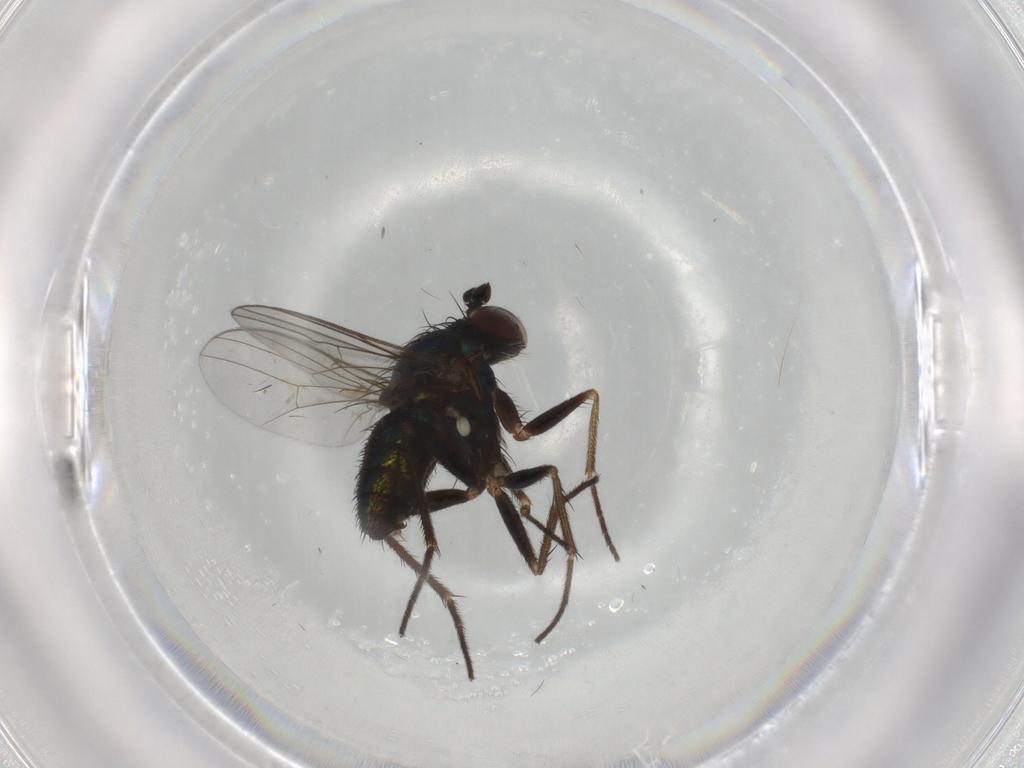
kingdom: Animalia
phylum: Arthropoda
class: Insecta
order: Diptera
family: Dolichopodidae
